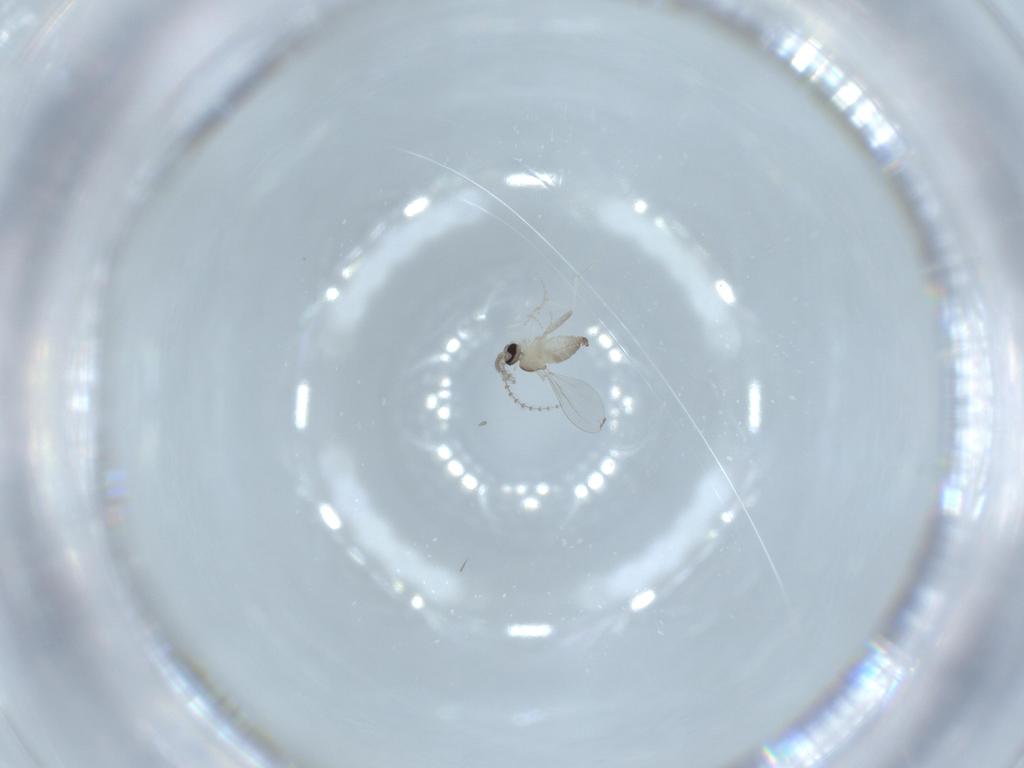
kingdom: Animalia
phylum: Arthropoda
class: Insecta
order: Diptera
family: Cecidomyiidae
